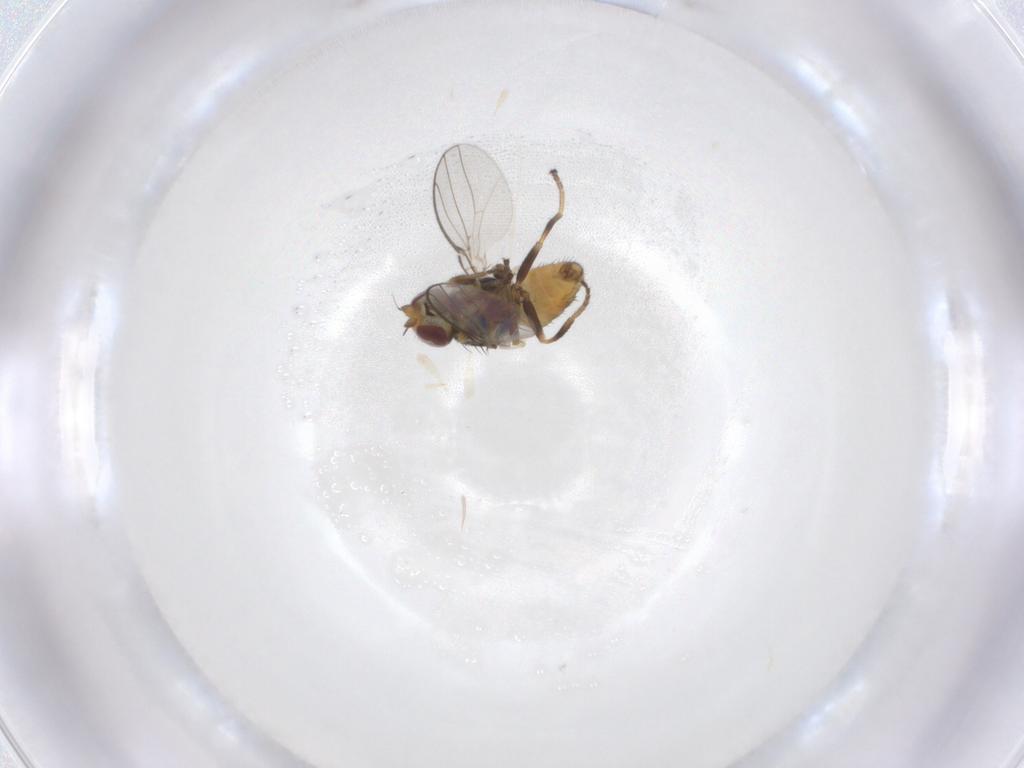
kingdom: Animalia
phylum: Arthropoda
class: Insecta
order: Diptera
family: Chloropidae
